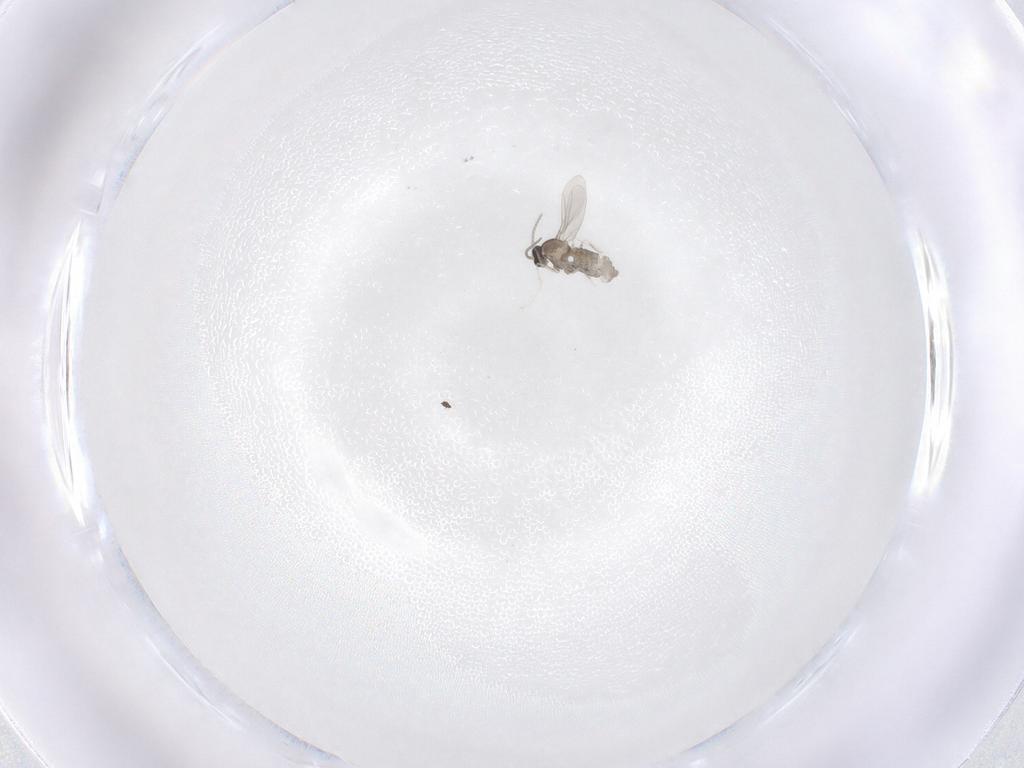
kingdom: Animalia
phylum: Arthropoda
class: Insecta
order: Diptera
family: Cecidomyiidae
